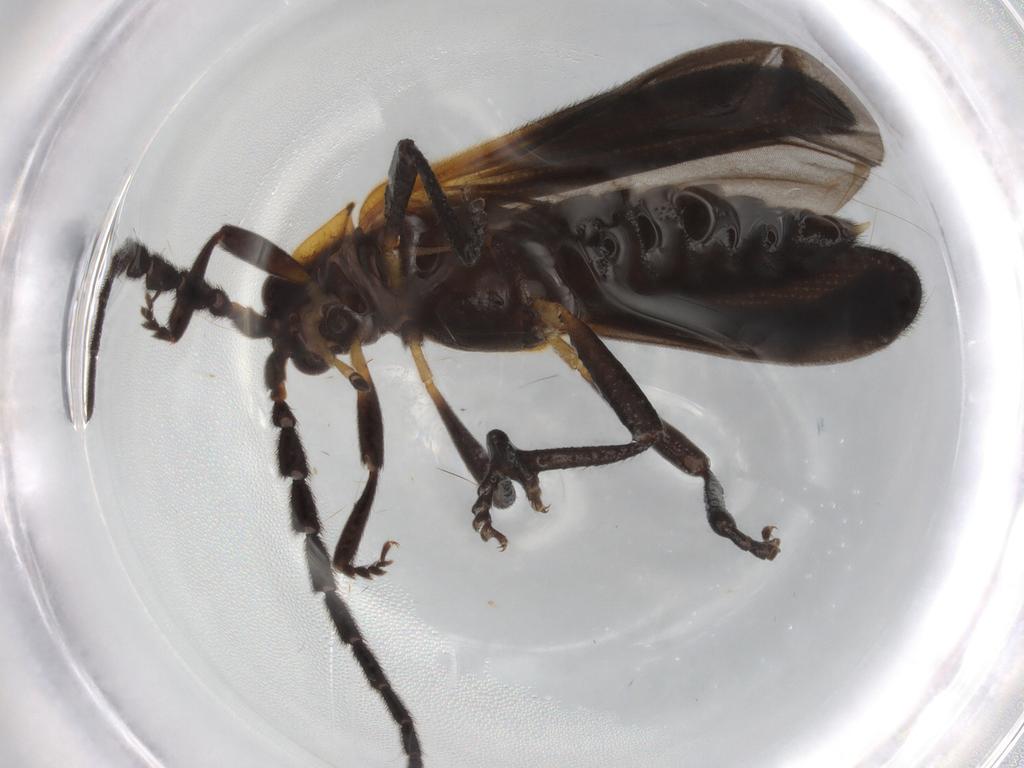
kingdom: Animalia
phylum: Arthropoda
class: Insecta
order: Coleoptera
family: Lycidae
